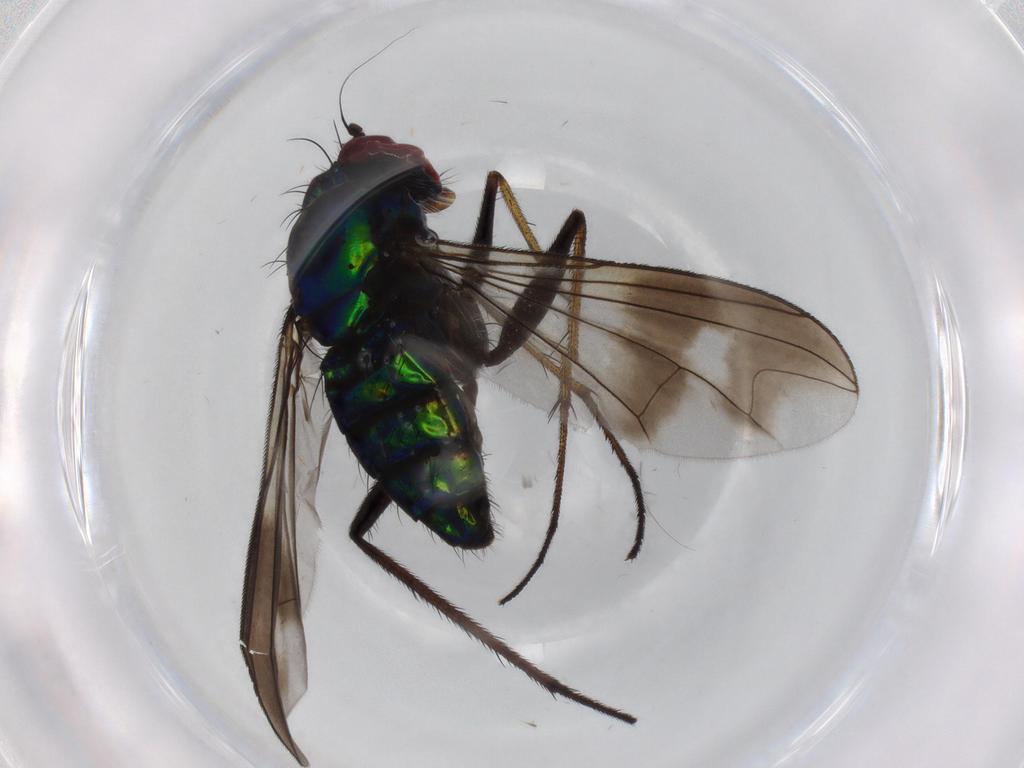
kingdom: Animalia
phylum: Arthropoda
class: Insecta
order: Diptera
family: Dolichopodidae
